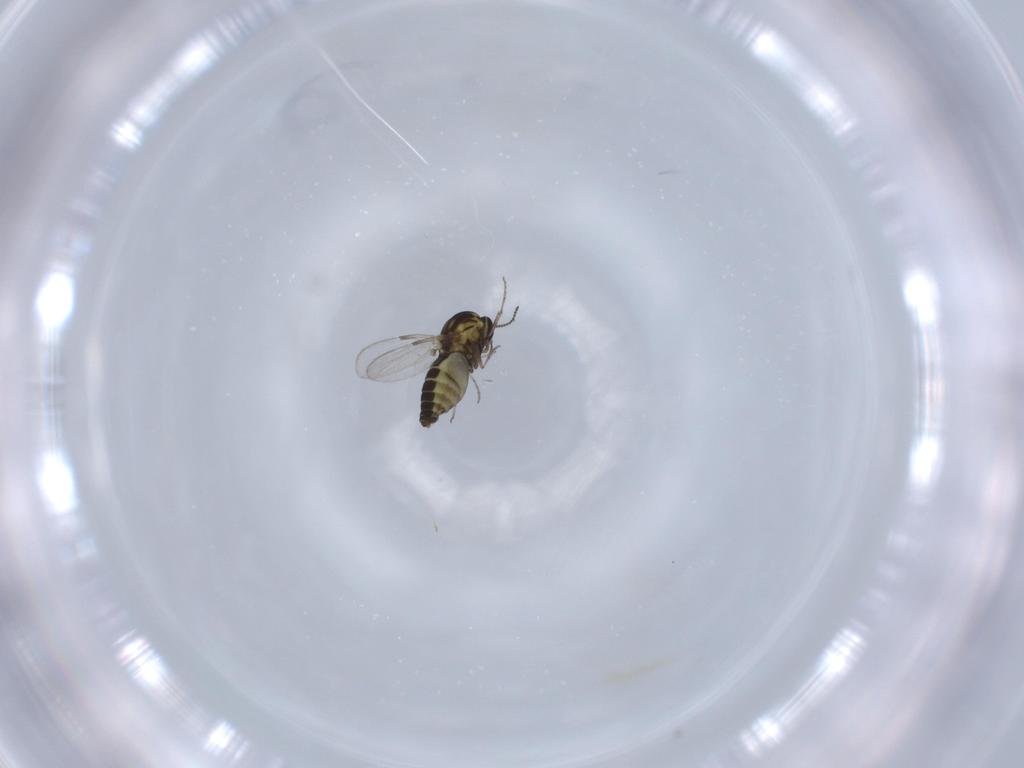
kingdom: Animalia
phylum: Arthropoda
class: Insecta
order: Diptera
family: Ceratopogonidae
